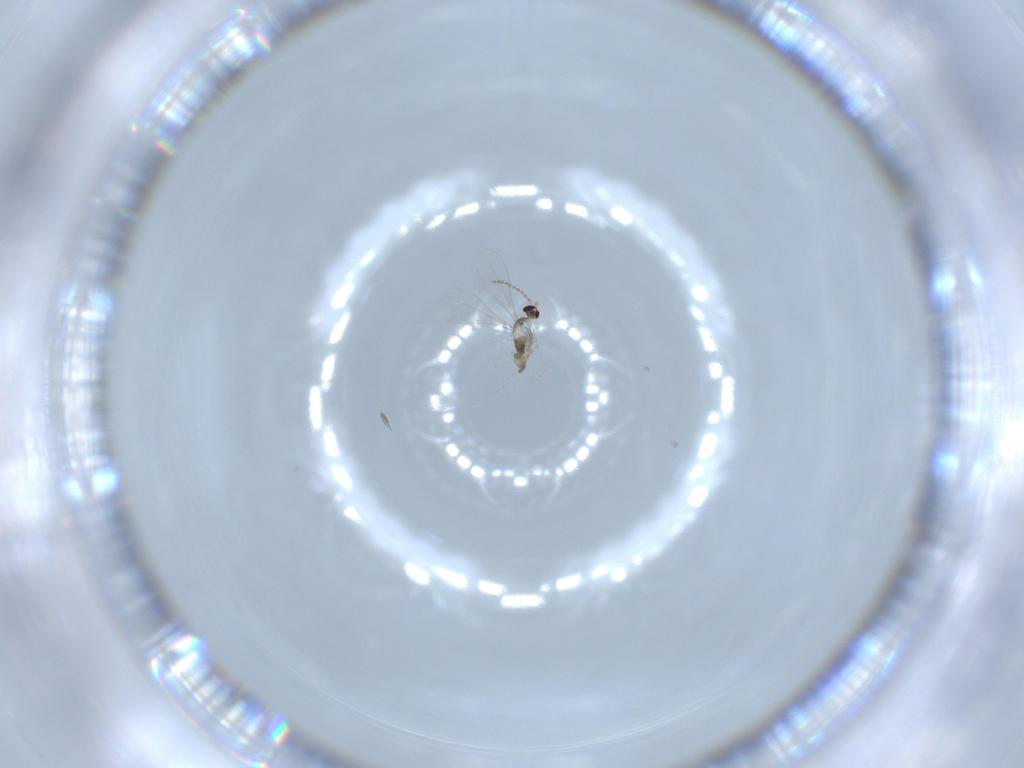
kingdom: Animalia
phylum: Arthropoda
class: Insecta
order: Diptera
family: Cecidomyiidae
